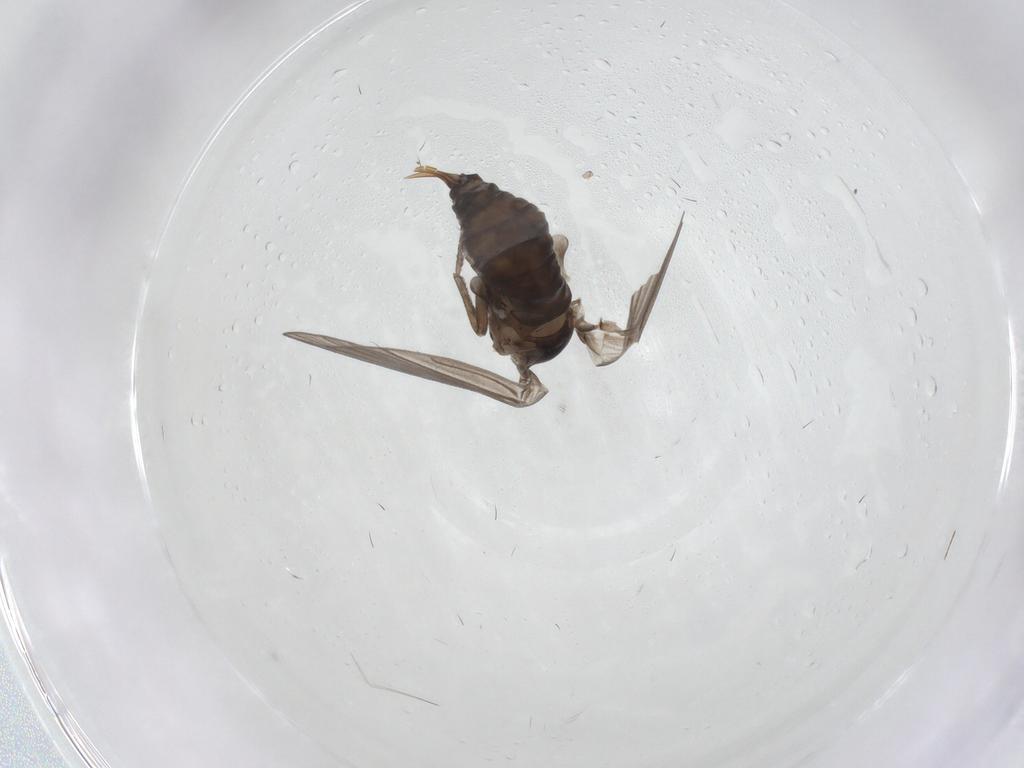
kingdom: Animalia
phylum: Arthropoda
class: Insecta
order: Diptera
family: Psychodidae
